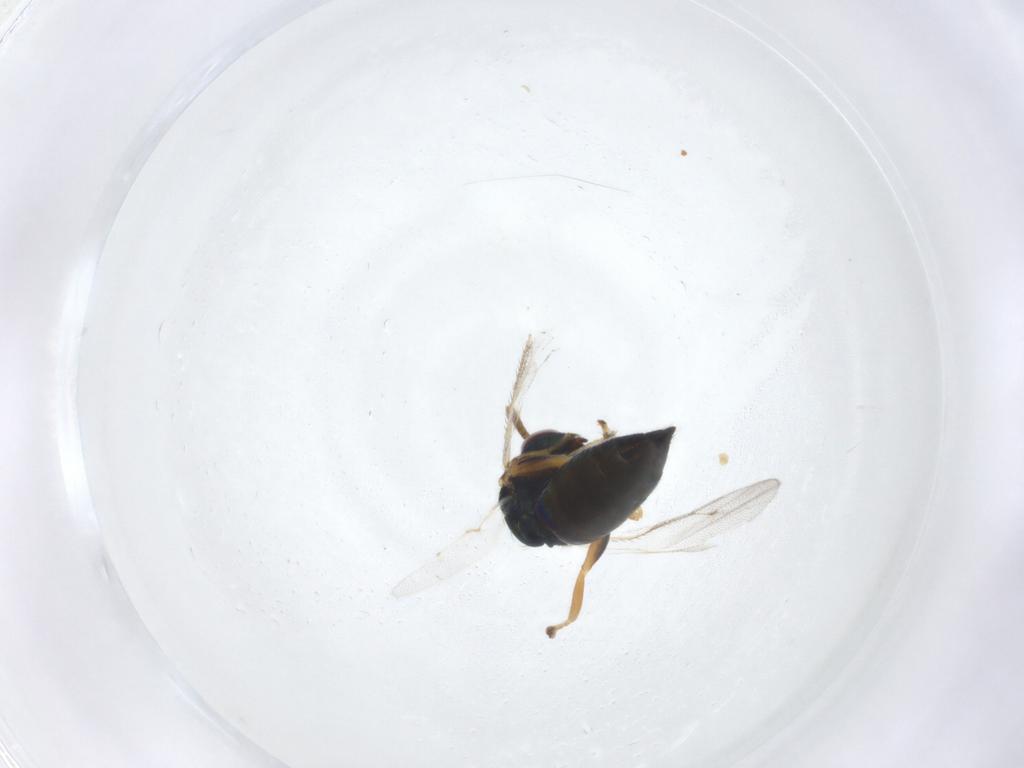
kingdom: Animalia
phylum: Arthropoda
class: Insecta
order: Hymenoptera
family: Pteromalidae
